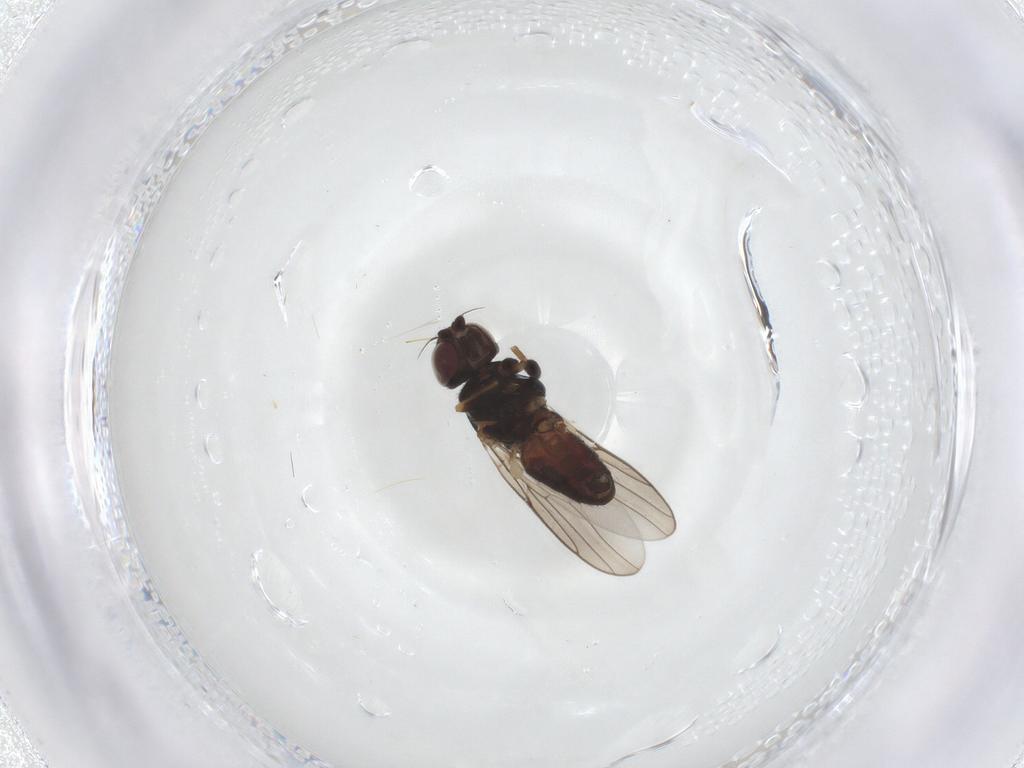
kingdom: Animalia
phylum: Arthropoda
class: Insecta
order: Diptera
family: Chloropidae
